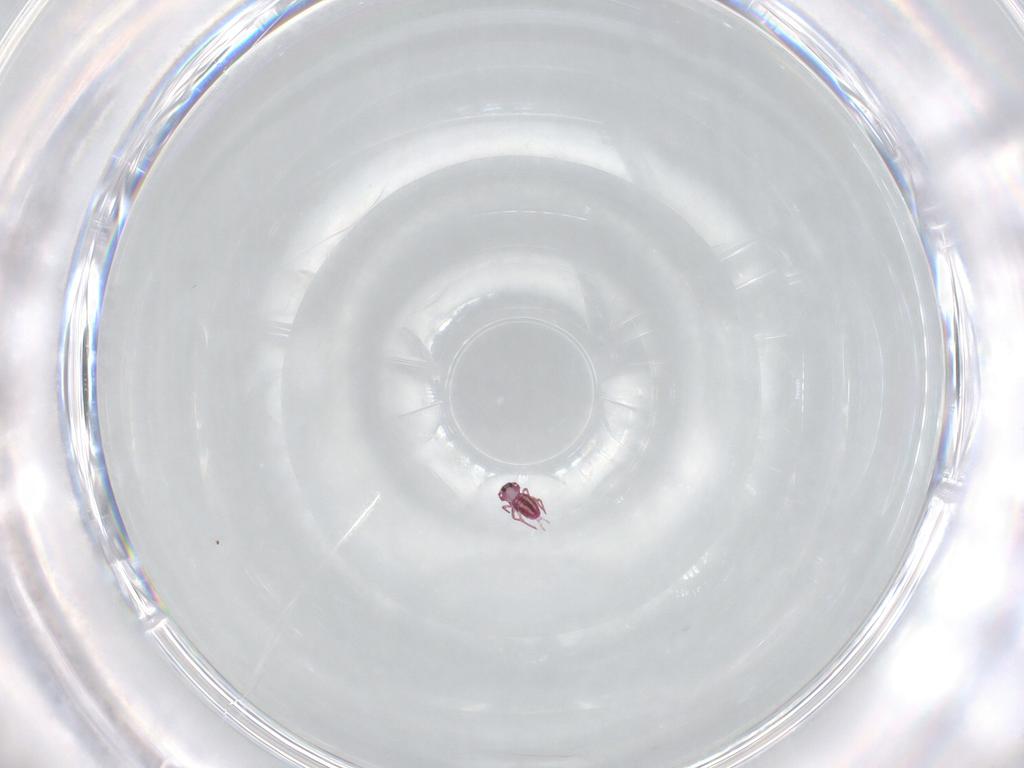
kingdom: Animalia
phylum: Arthropoda
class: Collembola
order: Symphypleona
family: Sminthurididae
